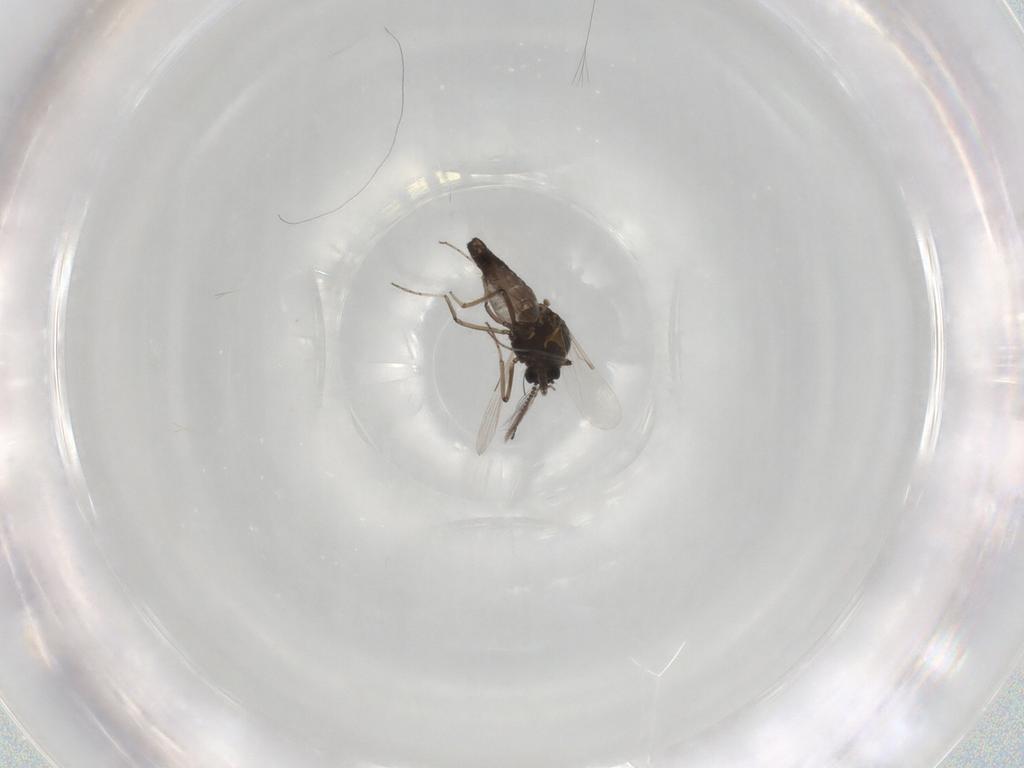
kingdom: Animalia
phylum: Arthropoda
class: Insecta
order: Diptera
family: Ceratopogonidae
